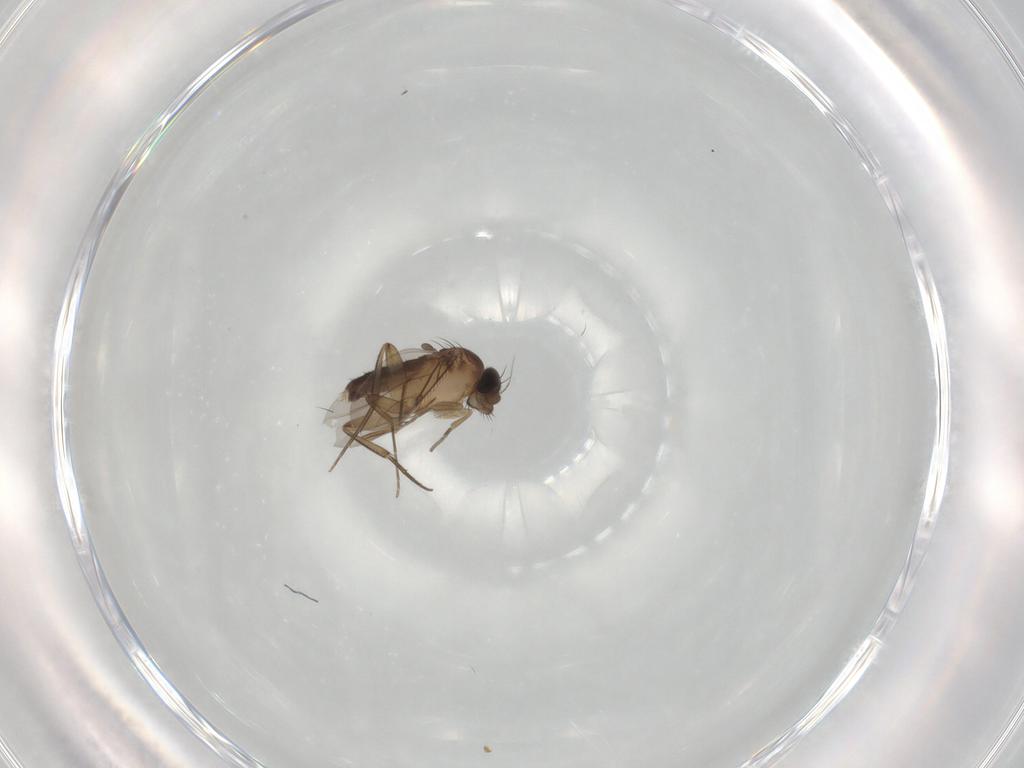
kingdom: Animalia
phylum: Arthropoda
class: Insecta
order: Diptera
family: Phoridae
